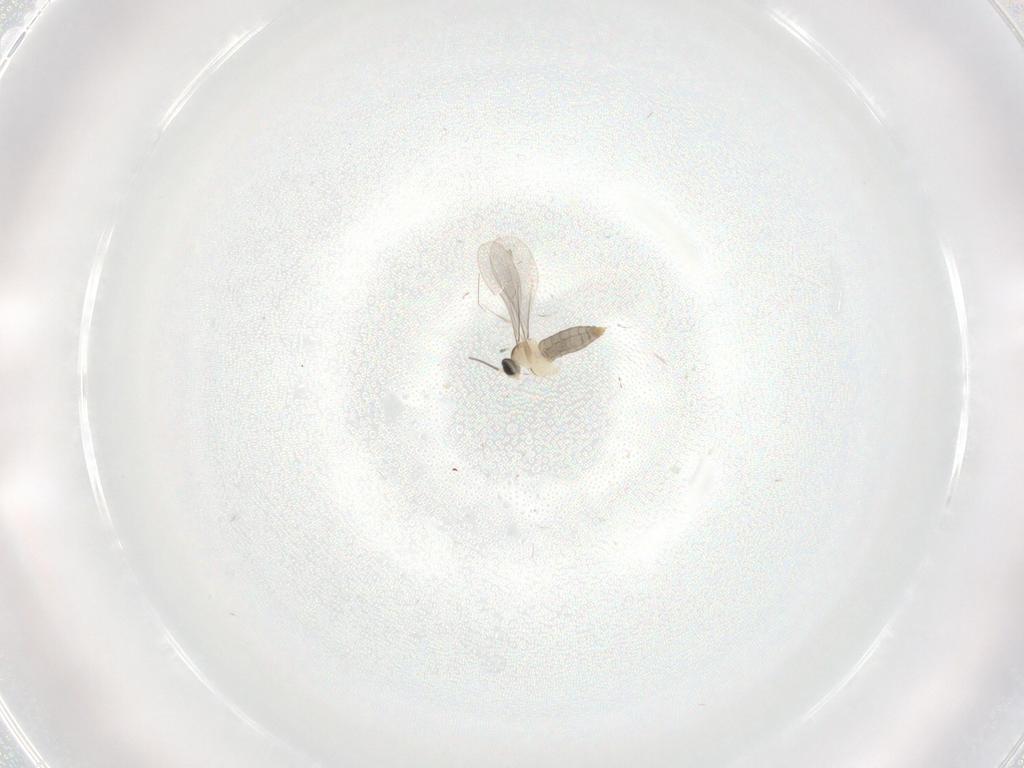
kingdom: Animalia
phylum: Arthropoda
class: Insecta
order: Diptera
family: Cecidomyiidae
